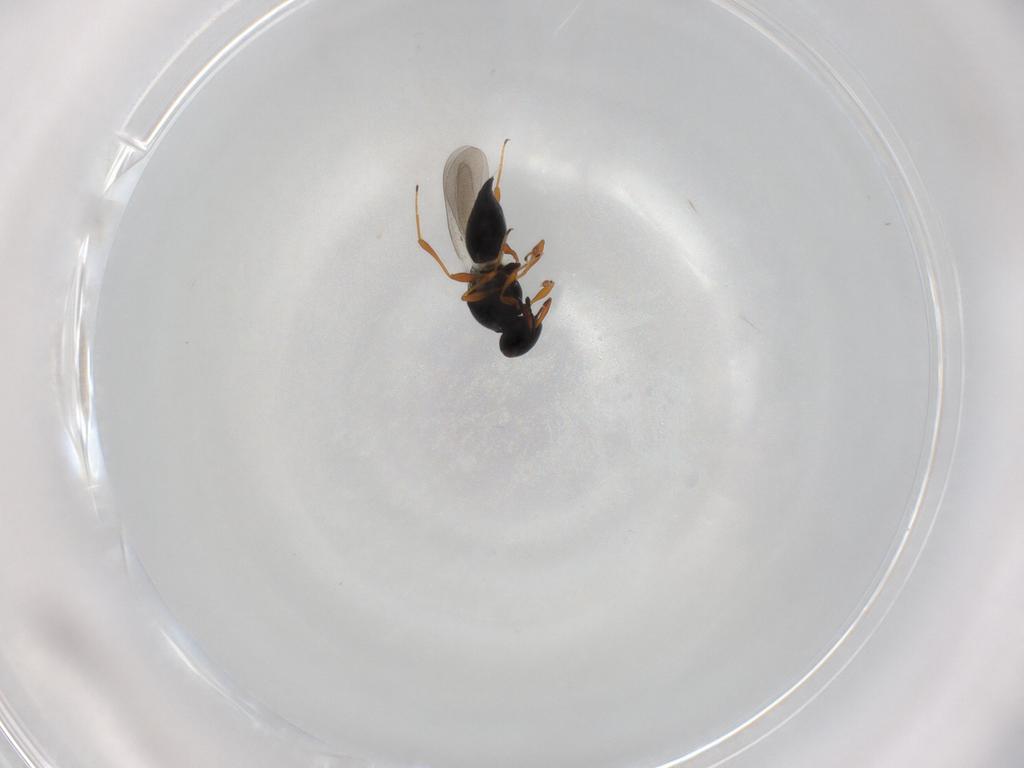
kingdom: Animalia
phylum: Arthropoda
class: Insecta
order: Hymenoptera
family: Platygastridae
